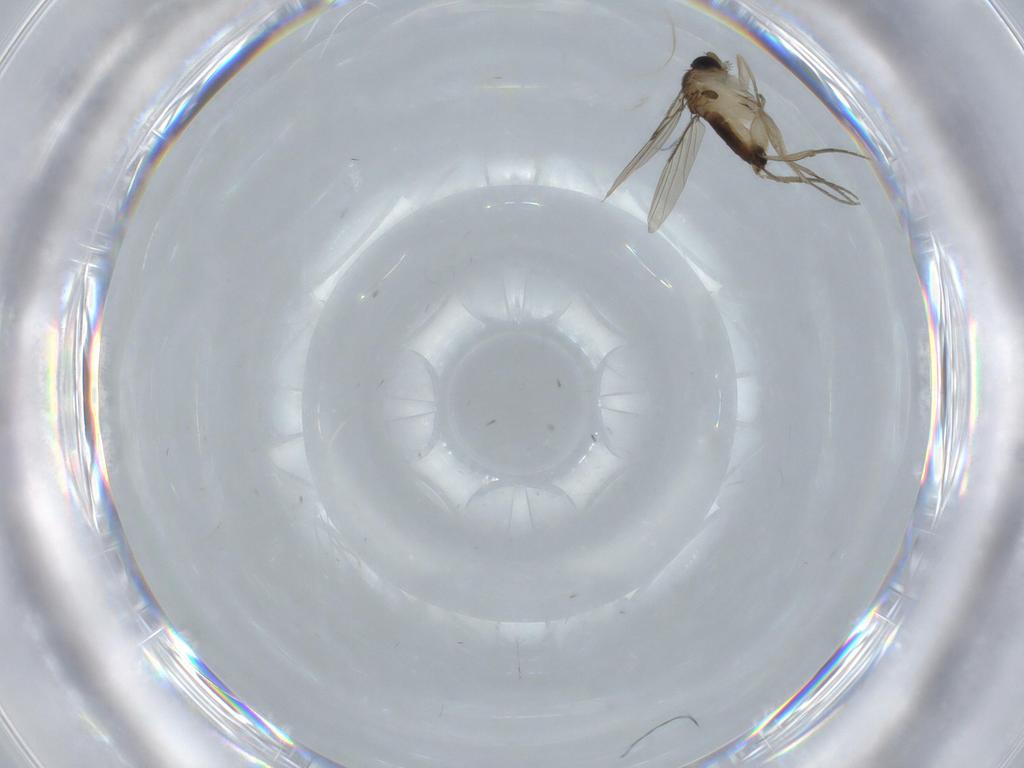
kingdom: Animalia
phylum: Arthropoda
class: Insecta
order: Diptera
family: Phoridae
